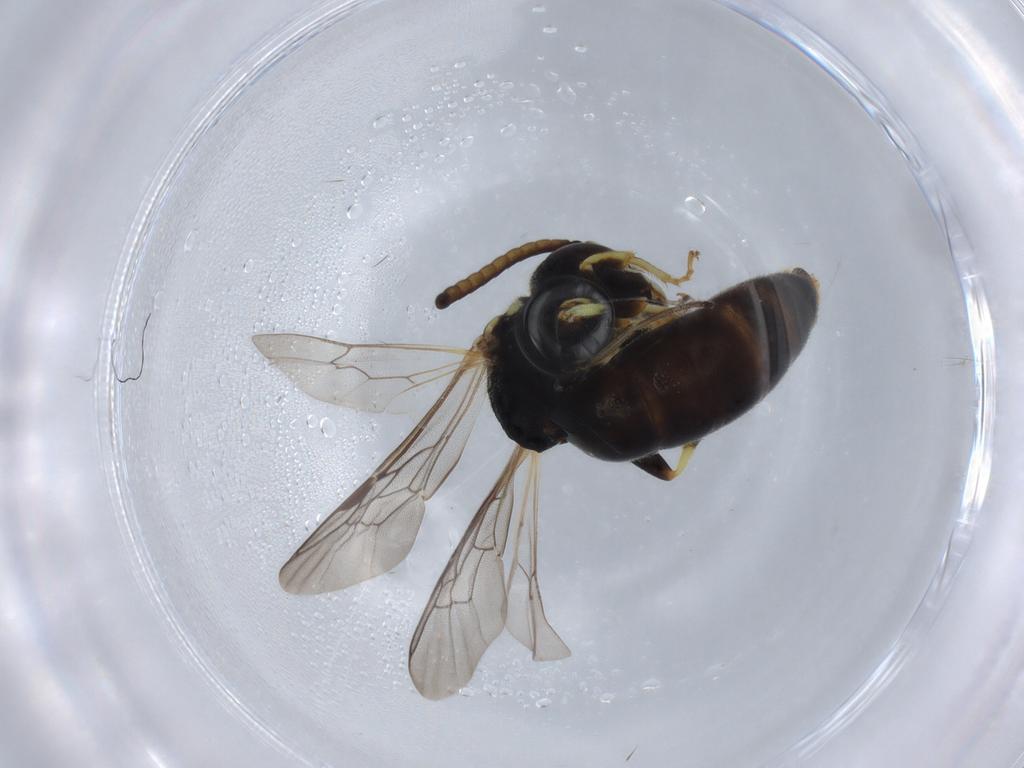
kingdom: Animalia
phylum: Arthropoda
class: Insecta
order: Hymenoptera
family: Colletidae
